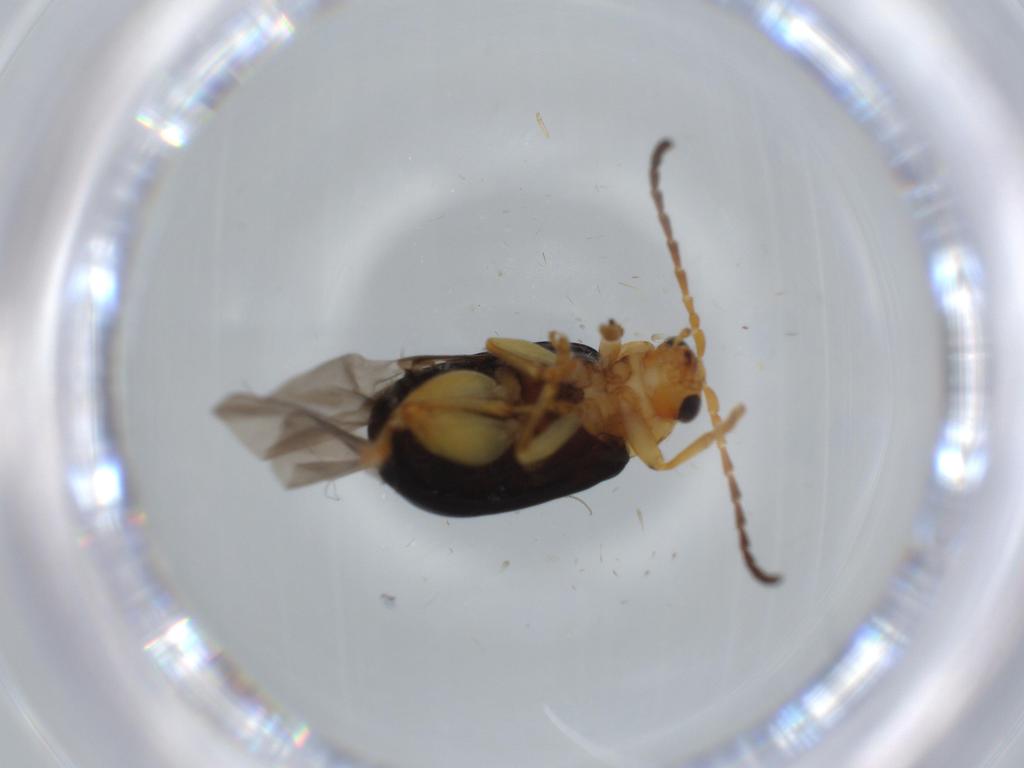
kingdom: Animalia
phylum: Arthropoda
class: Insecta
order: Coleoptera
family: Chrysomelidae
